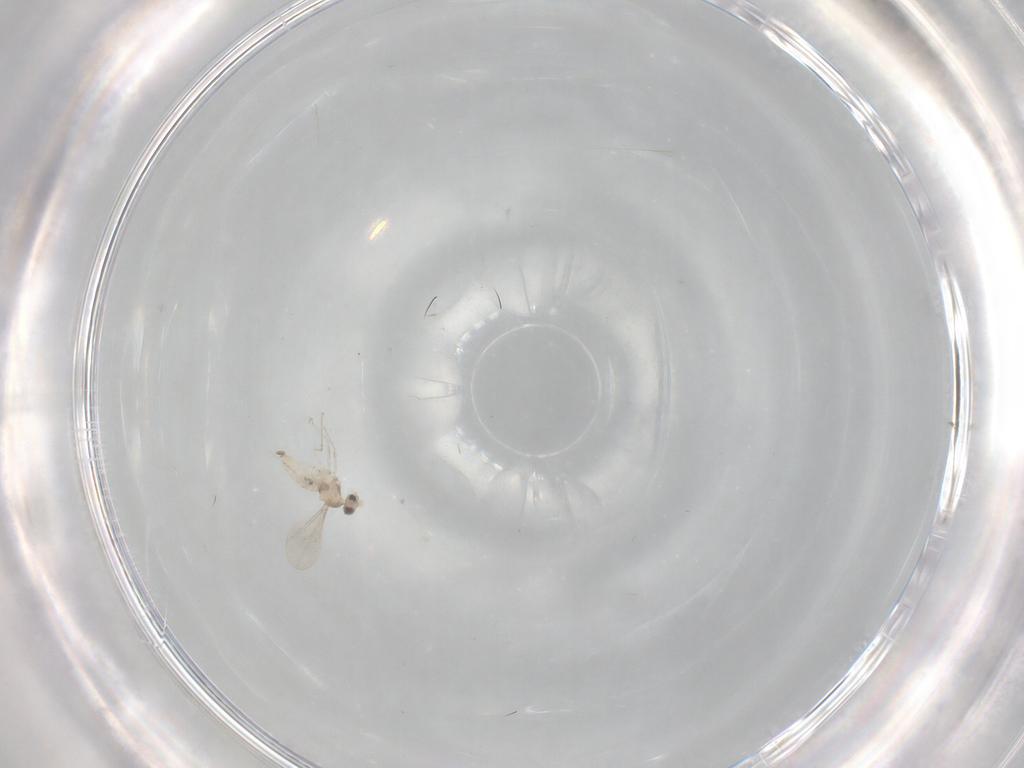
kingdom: Animalia
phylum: Arthropoda
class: Insecta
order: Diptera
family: Cecidomyiidae
